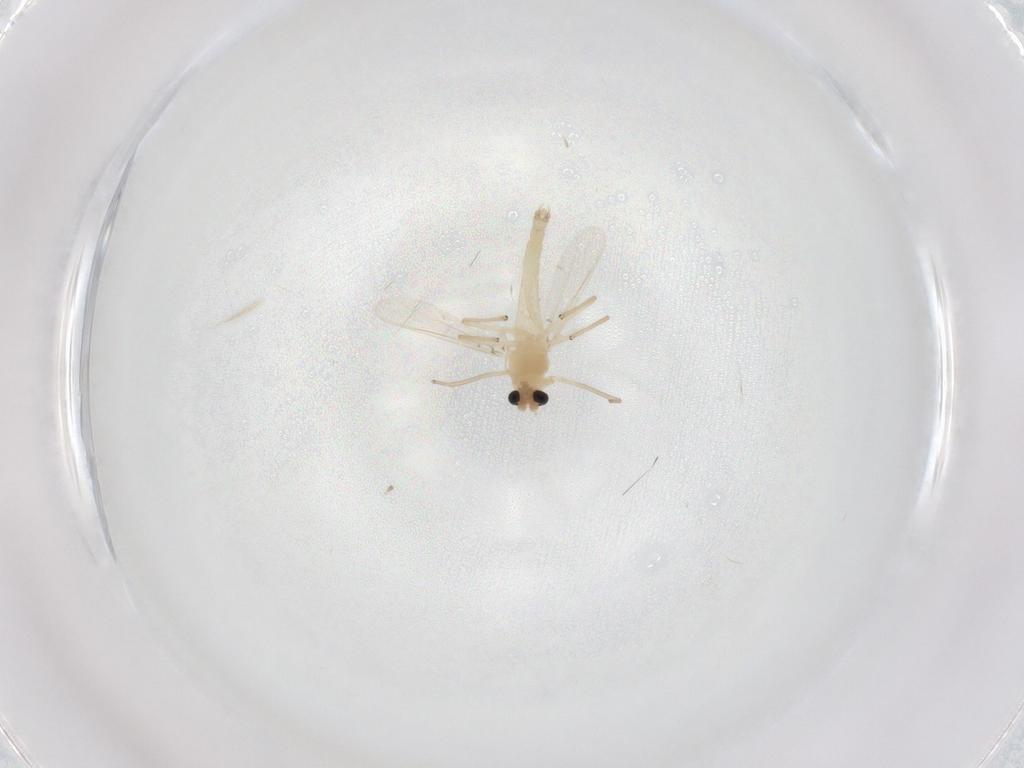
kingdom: Animalia
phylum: Arthropoda
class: Insecta
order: Diptera
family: Chironomidae
